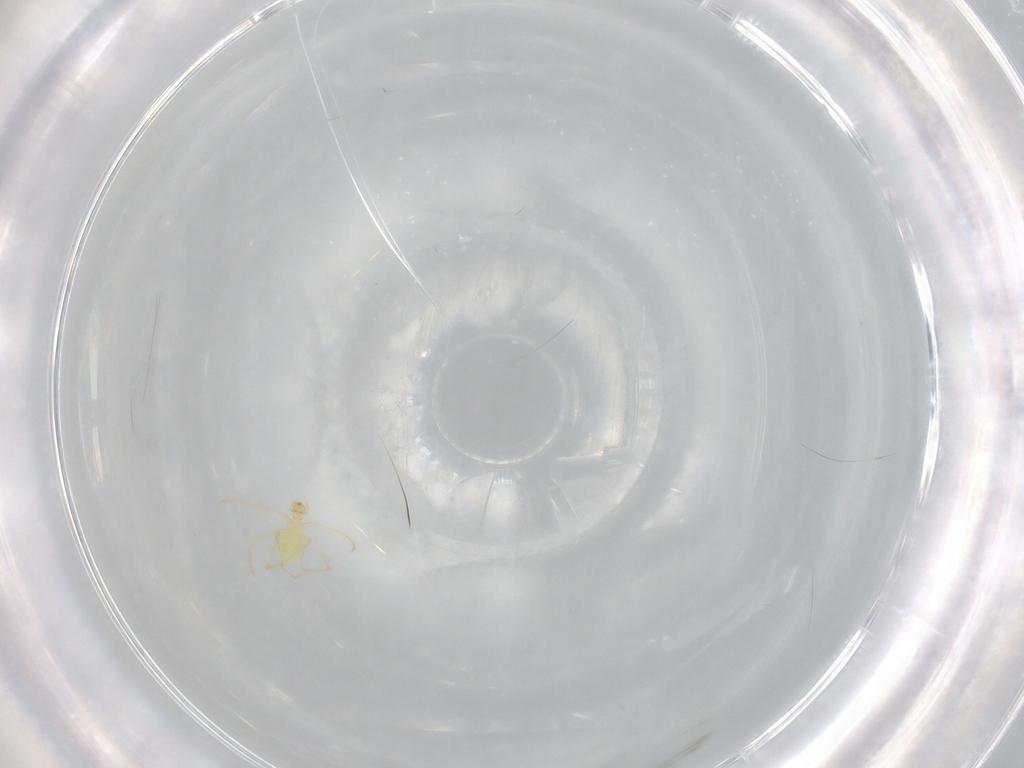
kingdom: Animalia
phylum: Arthropoda
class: Arachnida
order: Trombidiformes
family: Erythraeidae
